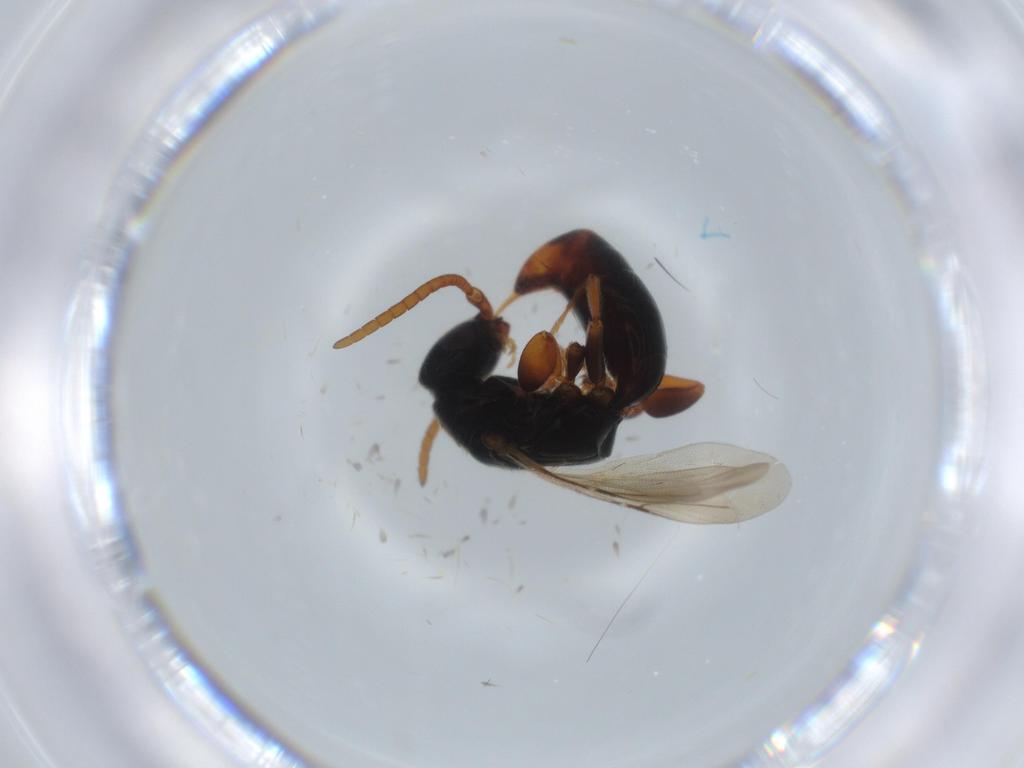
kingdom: Animalia
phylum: Arthropoda
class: Insecta
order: Hymenoptera
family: Bethylidae
